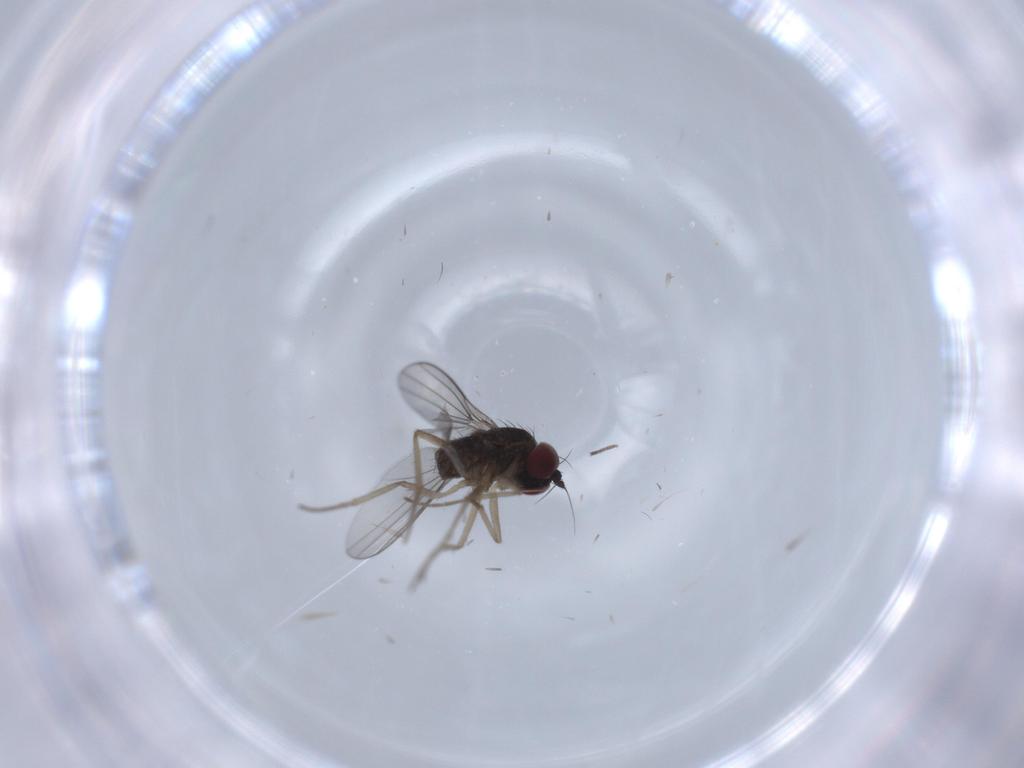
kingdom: Animalia
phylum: Arthropoda
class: Insecta
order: Diptera
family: Dolichopodidae
